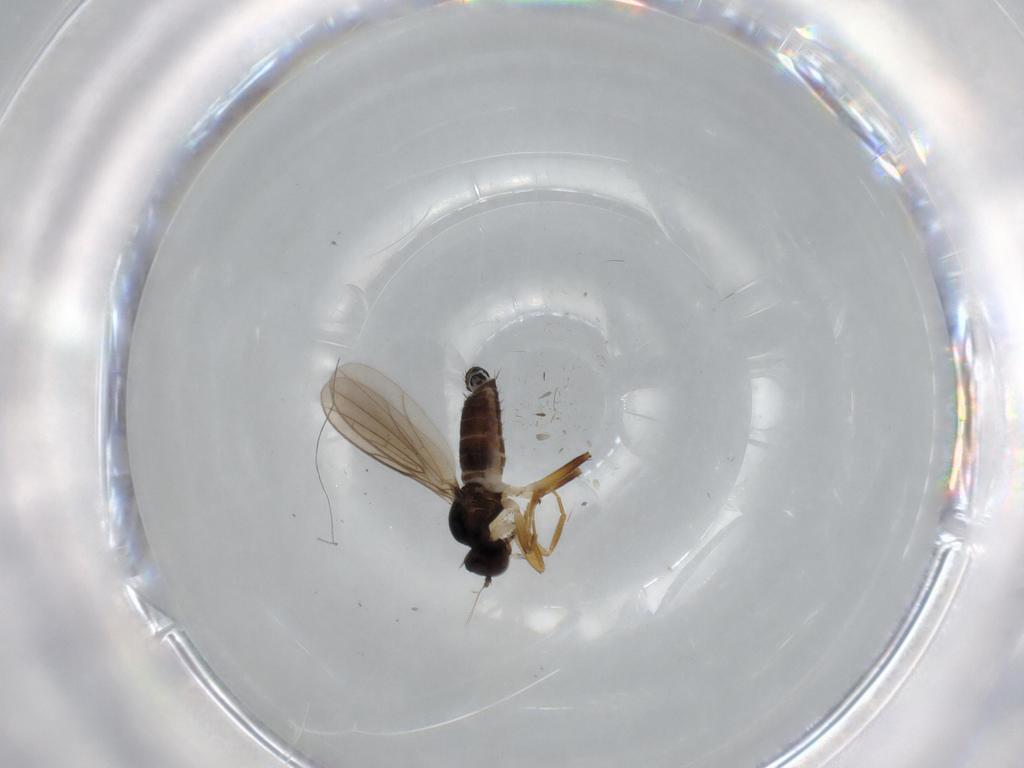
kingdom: Animalia
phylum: Arthropoda
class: Insecta
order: Diptera
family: Hybotidae
